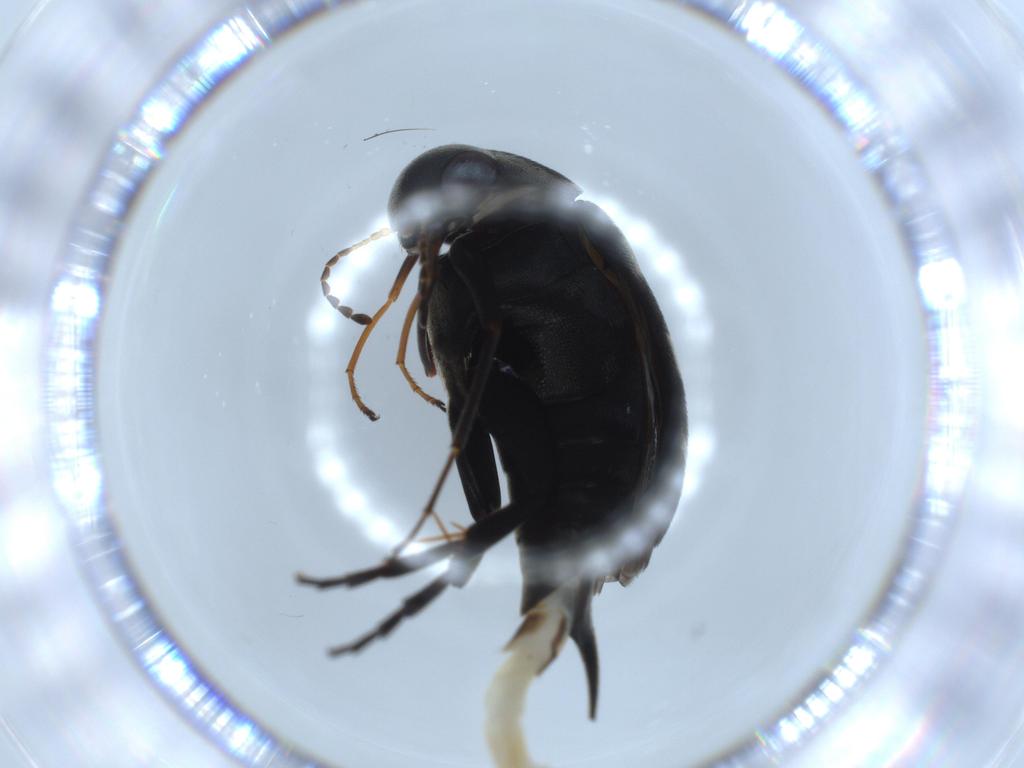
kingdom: Animalia
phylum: Arthropoda
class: Insecta
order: Coleoptera
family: Mordellidae
